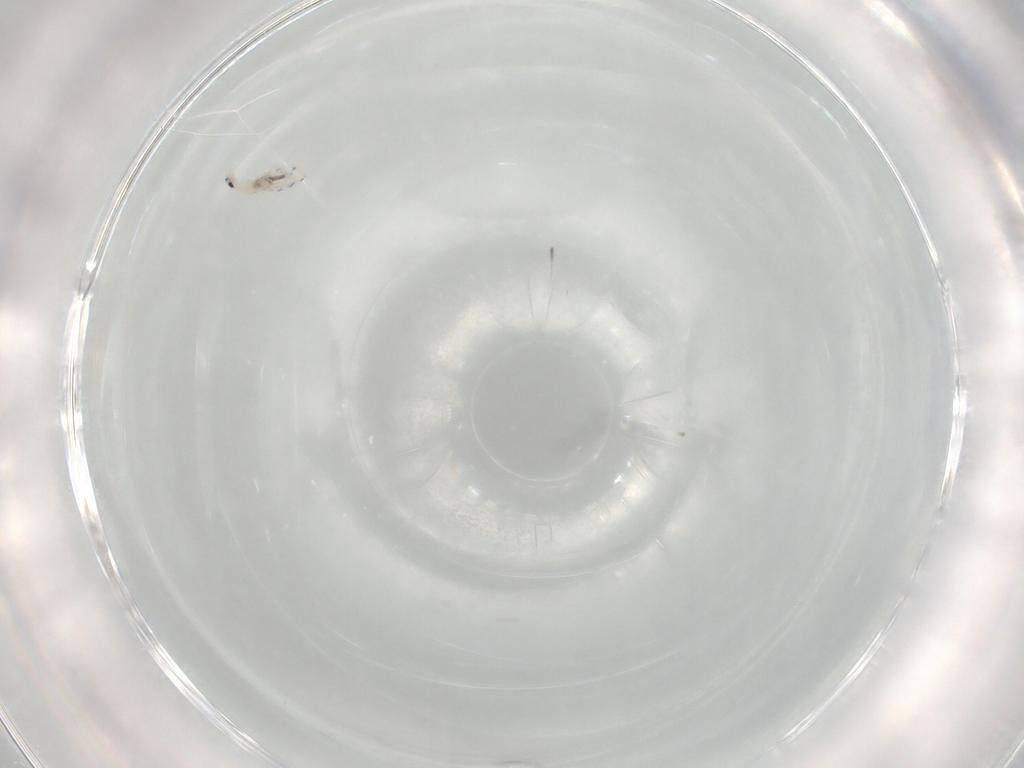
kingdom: Animalia
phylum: Arthropoda
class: Collembola
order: Entomobryomorpha
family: Entomobryidae
